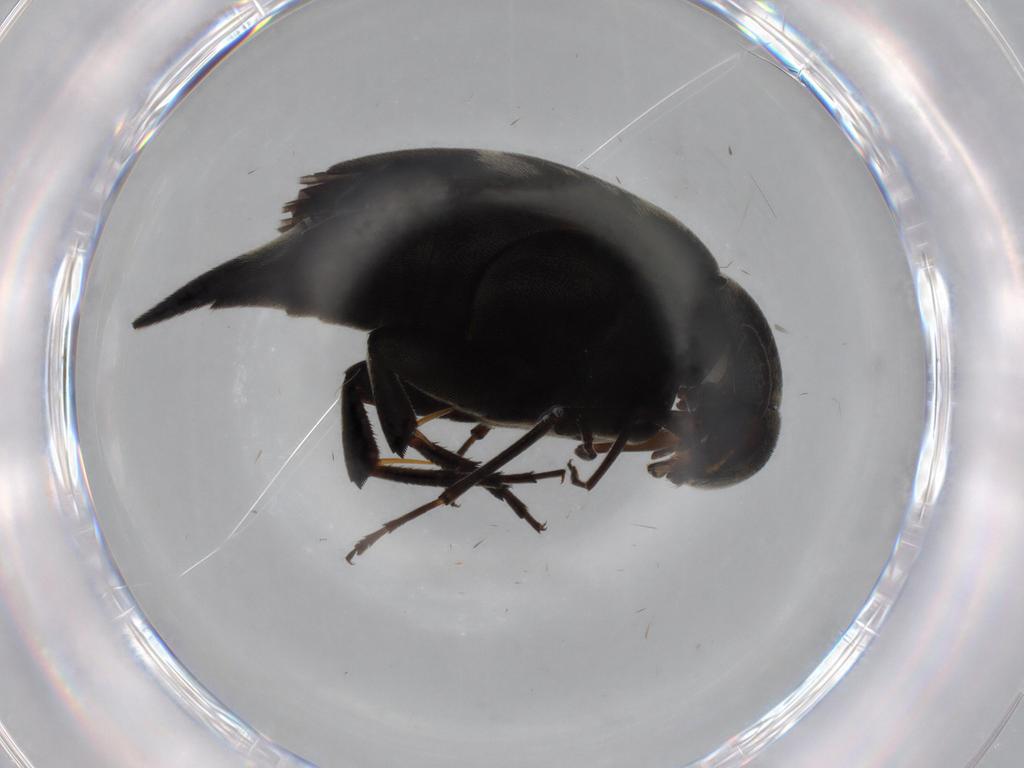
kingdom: Animalia
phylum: Arthropoda
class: Insecta
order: Coleoptera
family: Mordellidae
